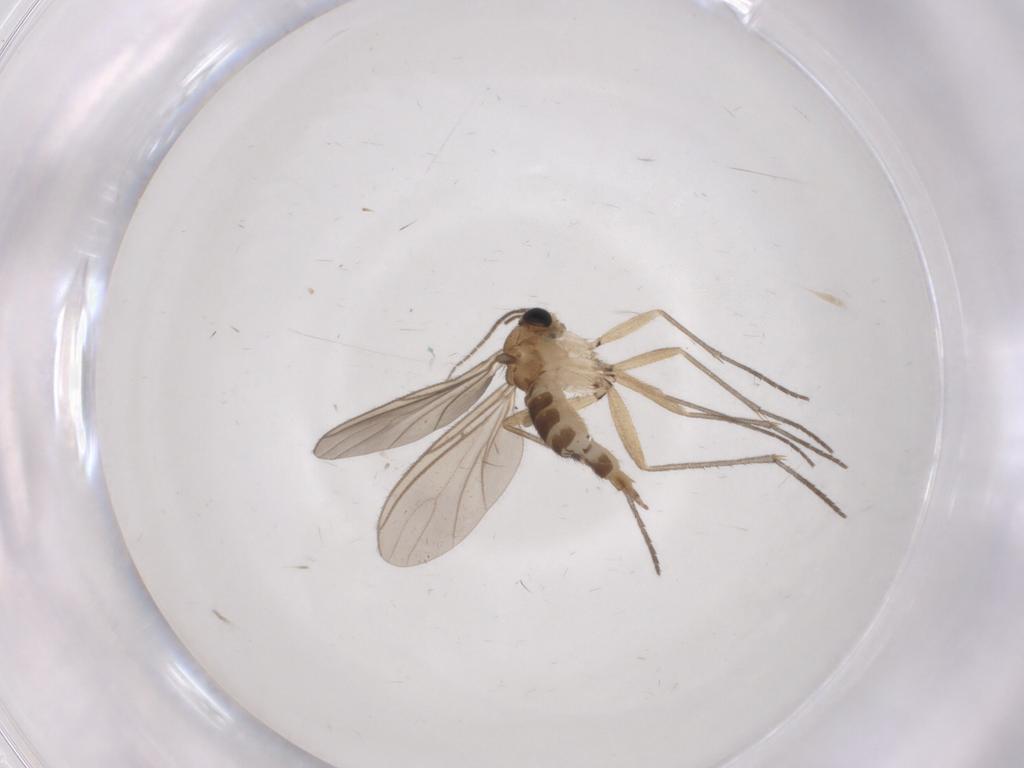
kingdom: Animalia
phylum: Arthropoda
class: Insecta
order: Diptera
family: Sciaridae
